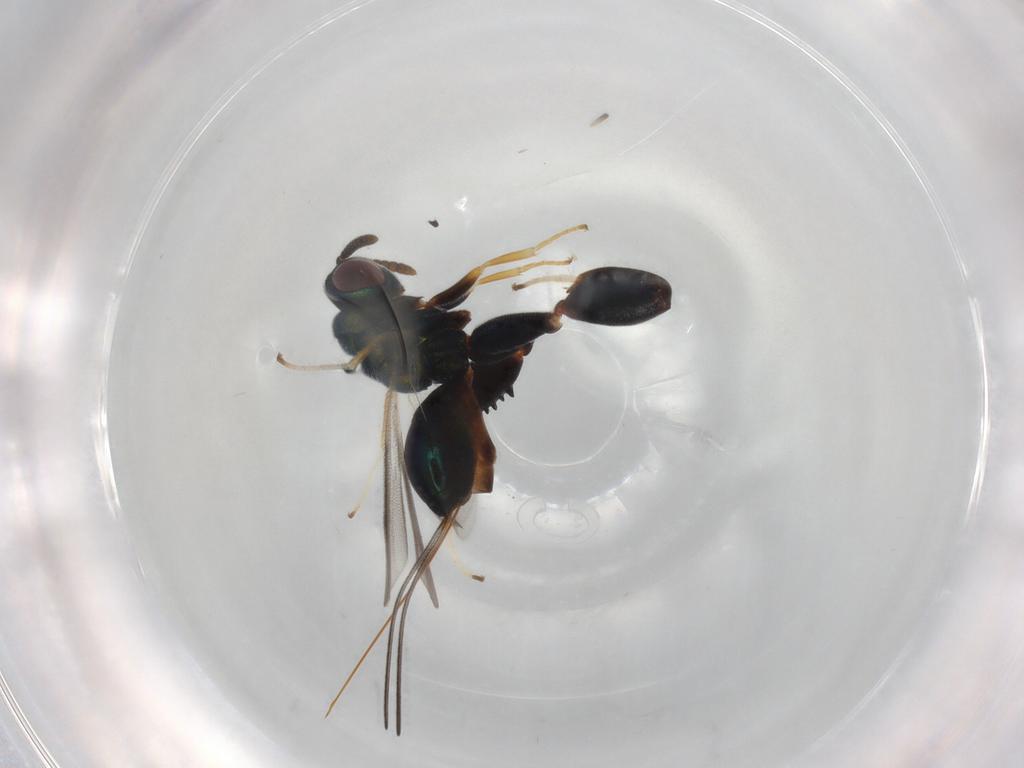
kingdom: Animalia
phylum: Arthropoda
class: Insecta
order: Hymenoptera
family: Torymidae
